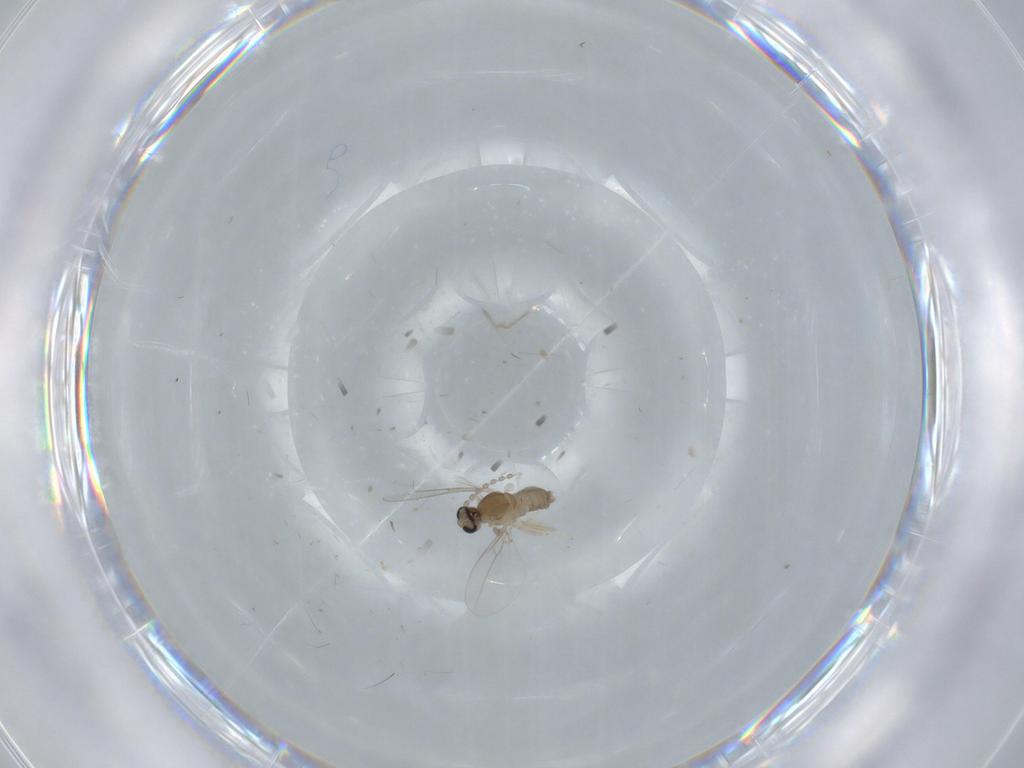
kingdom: Animalia
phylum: Arthropoda
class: Insecta
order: Diptera
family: Cecidomyiidae
